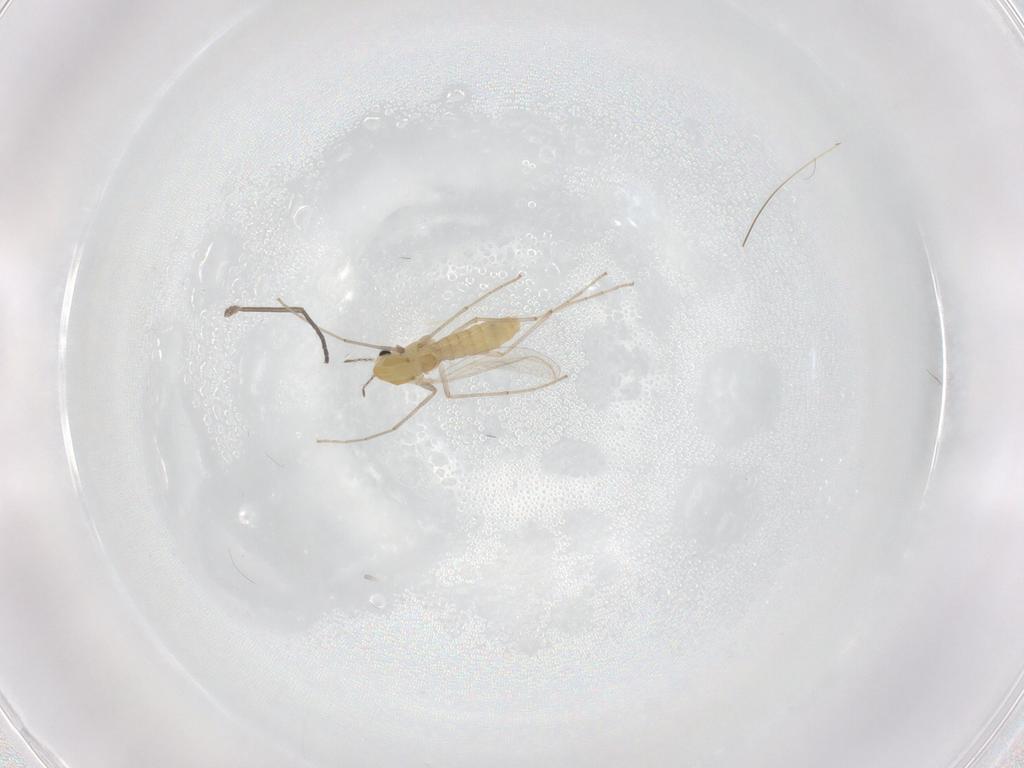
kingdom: Animalia
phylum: Arthropoda
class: Insecta
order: Diptera
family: Chironomidae
